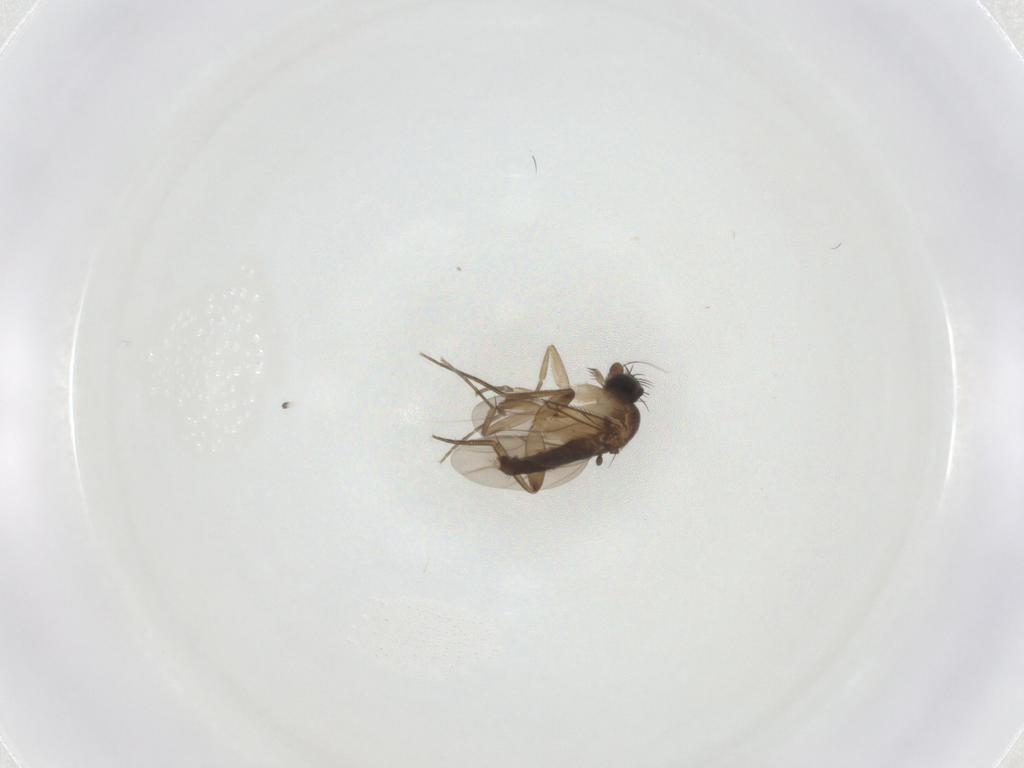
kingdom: Animalia
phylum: Arthropoda
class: Insecta
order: Diptera
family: Phoridae
